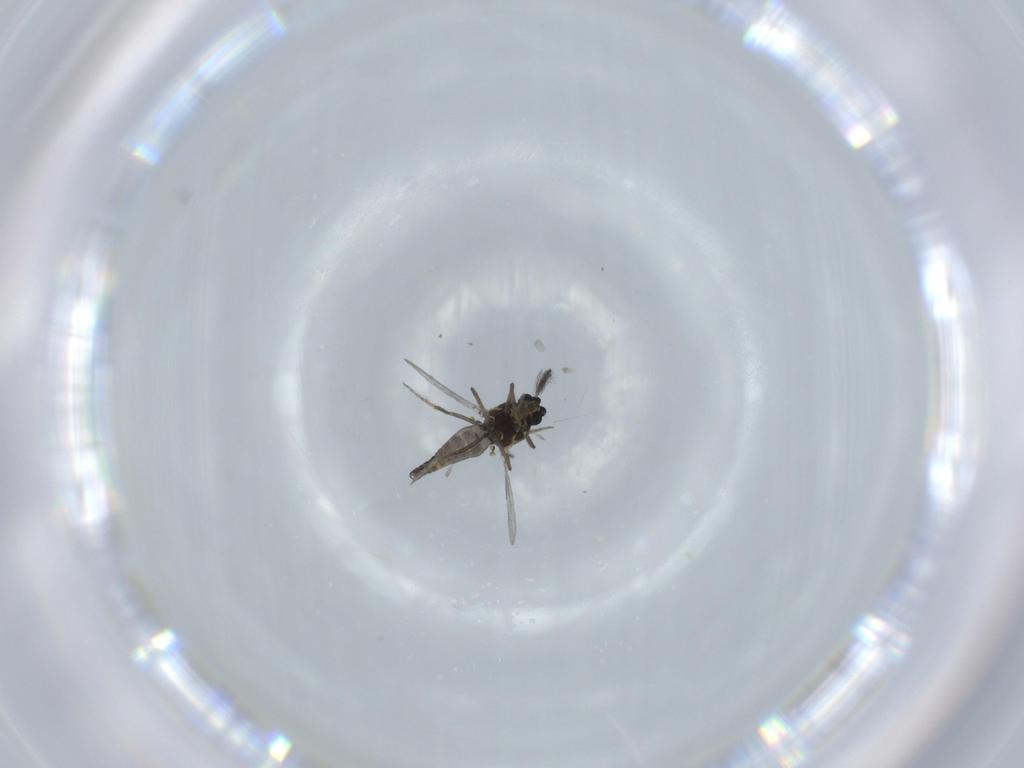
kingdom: Animalia
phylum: Arthropoda
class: Insecta
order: Diptera
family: Ceratopogonidae
